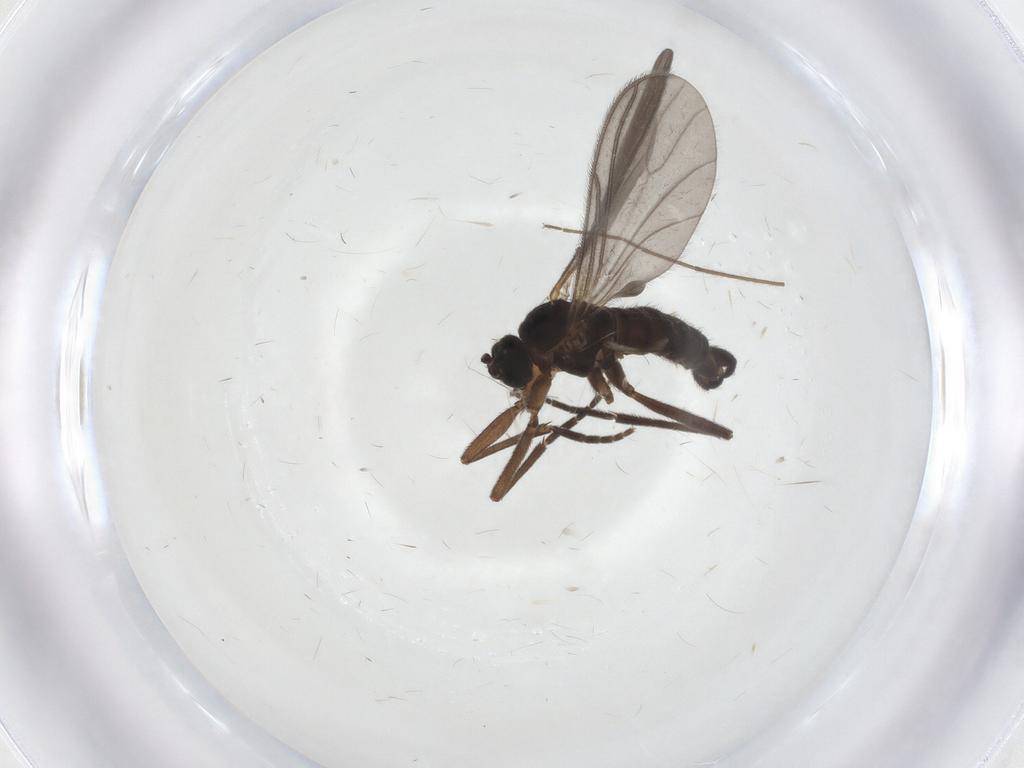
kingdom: Animalia
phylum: Arthropoda
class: Insecta
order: Diptera
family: Sciaridae
